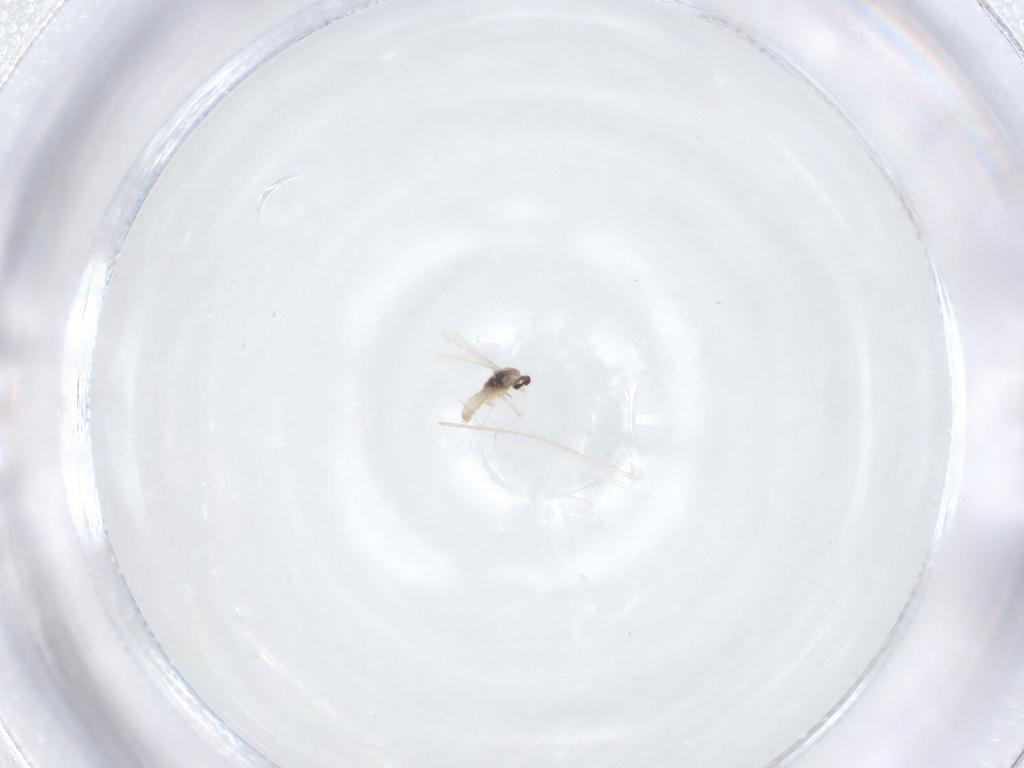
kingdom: Animalia
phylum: Arthropoda
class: Insecta
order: Diptera
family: Cecidomyiidae
